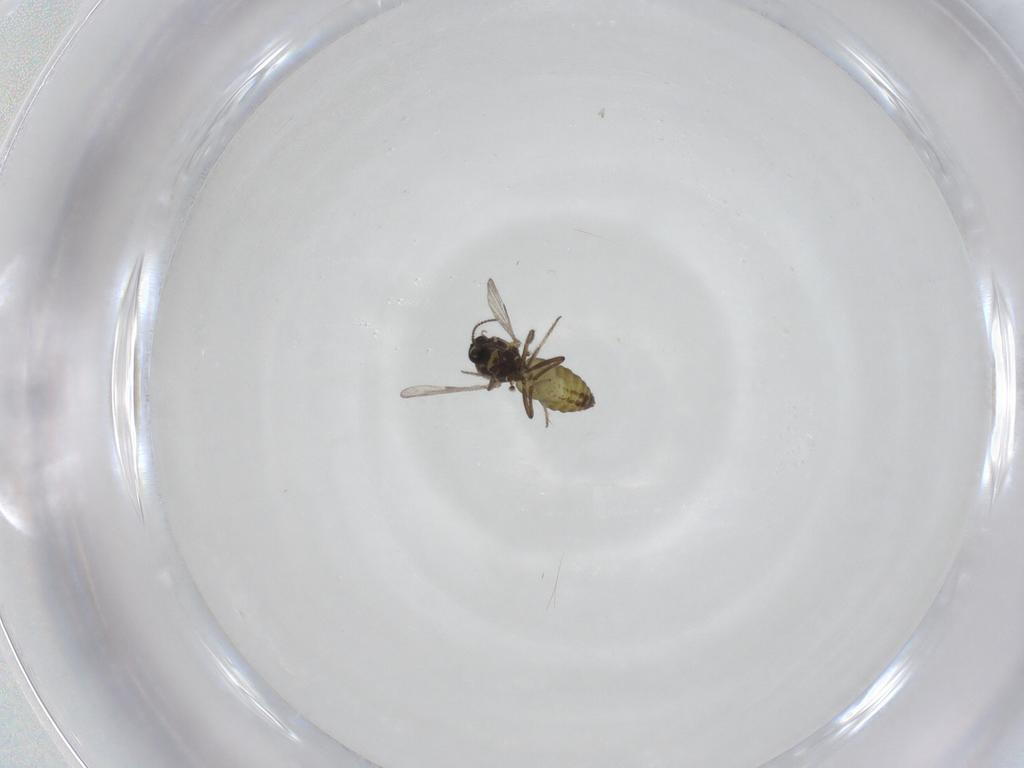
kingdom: Animalia
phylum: Arthropoda
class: Insecta
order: Diptera
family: Ceratopogonidae
